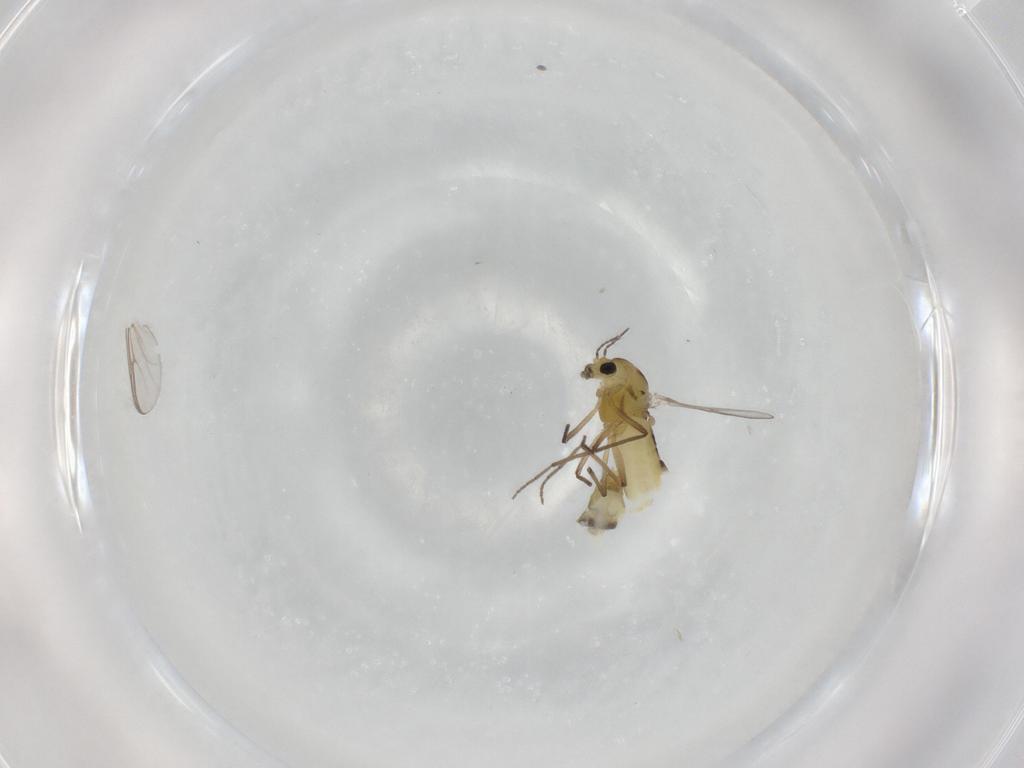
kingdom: Animalia
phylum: Arthropoda
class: Insecta
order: Diptera
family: Chironomidae
